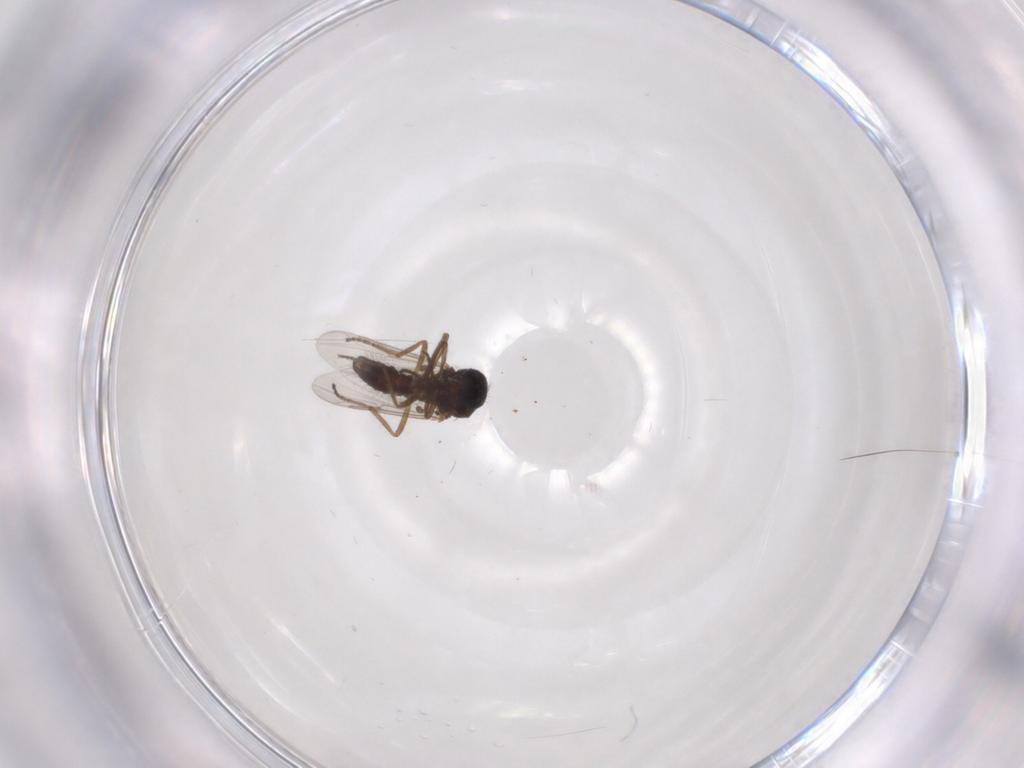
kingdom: Animalia
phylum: Arthropoda
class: Insecta
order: Diptera
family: Ceratopogonidae
